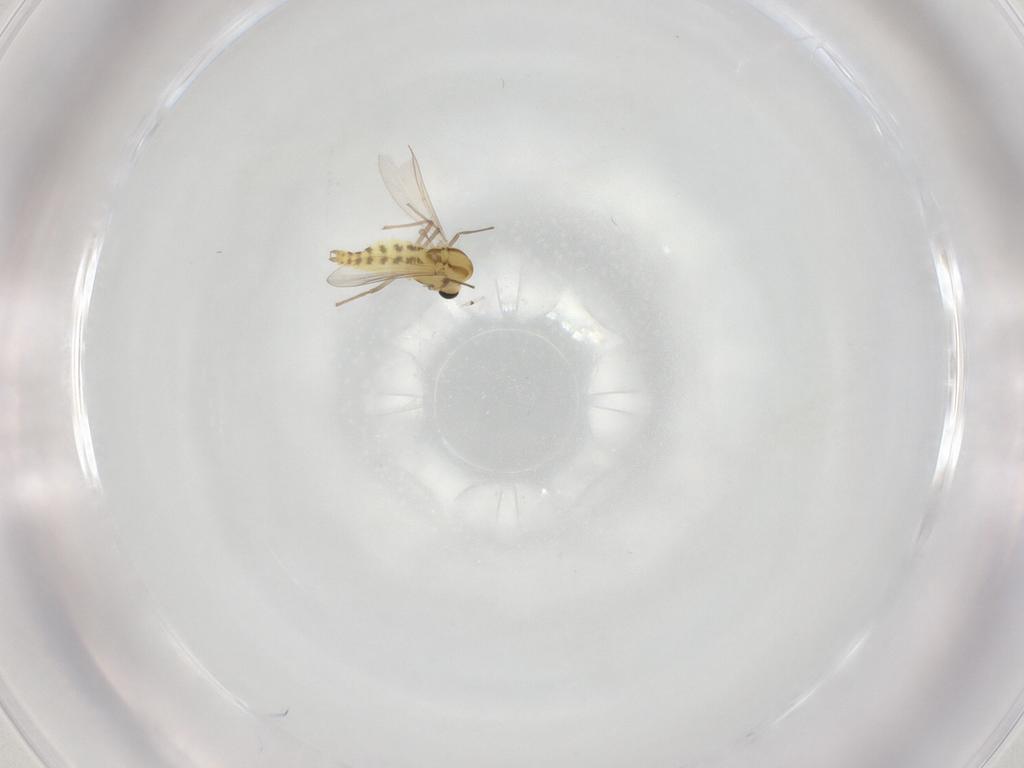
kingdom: Animalia
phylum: Arthropoda
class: Insecta
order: Diptera
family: Chironomidae
